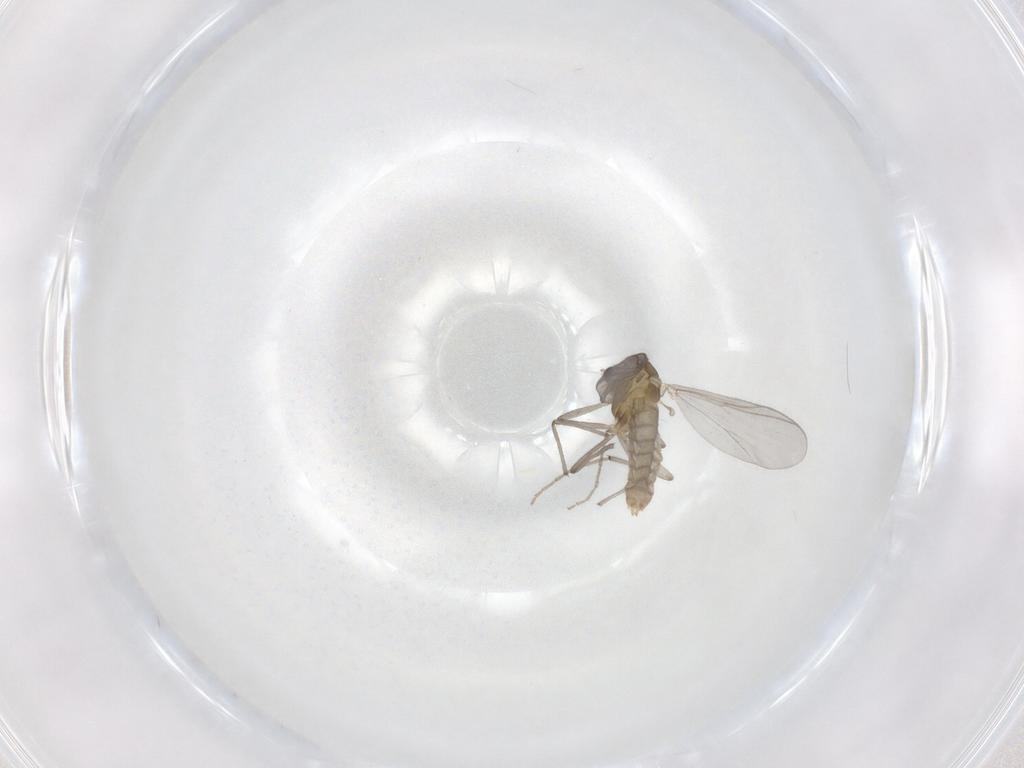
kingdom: Animalia
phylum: Arthropoda
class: Insecta
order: Diptera
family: Chironomidae
